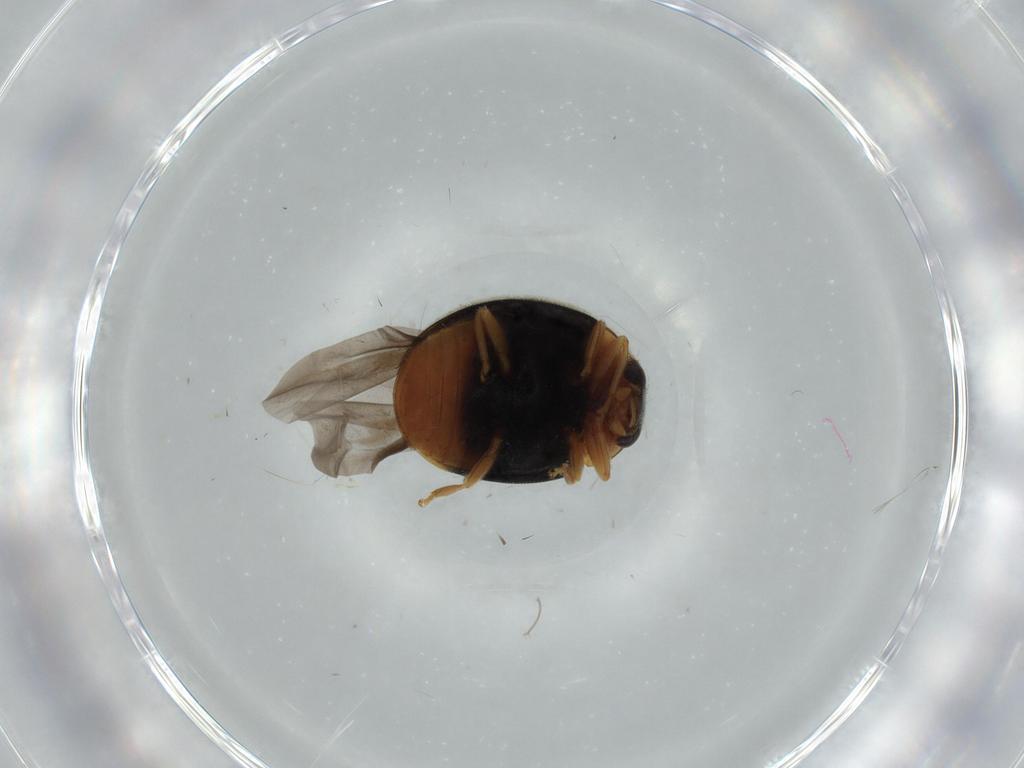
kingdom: Animalia
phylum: Arthropoda
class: Insecta
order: Coleoptera
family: Coccinellidae
